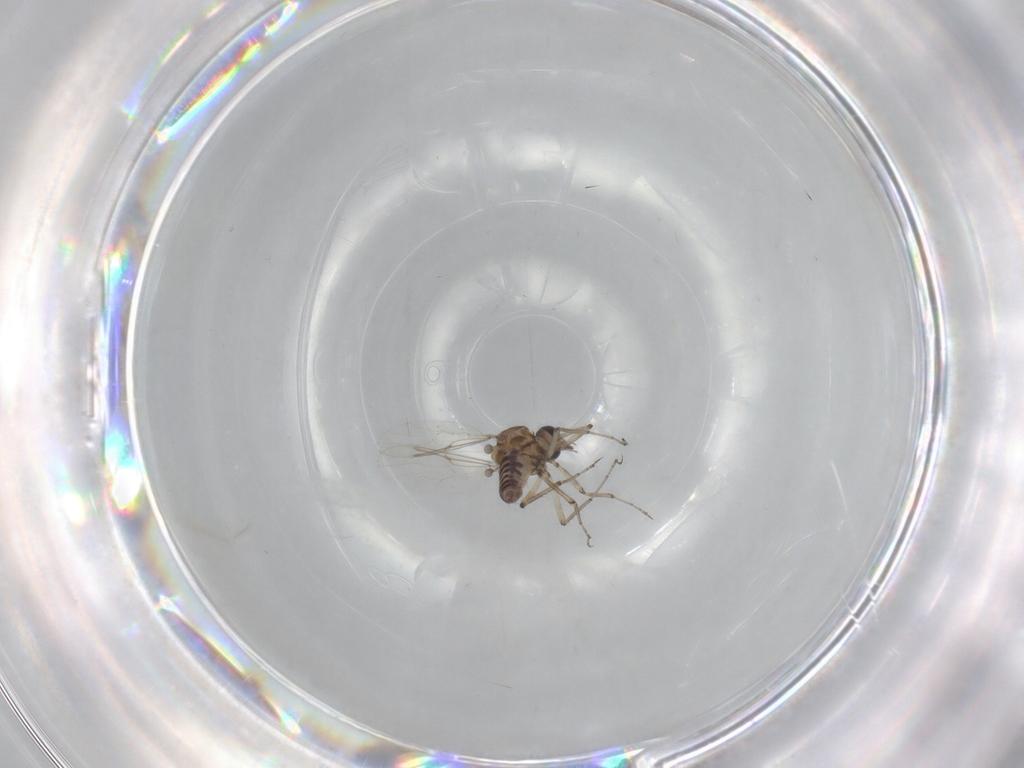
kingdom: Animalia
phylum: Arthropoda
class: Insecta
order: Diptera
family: Ceratopogonidae
